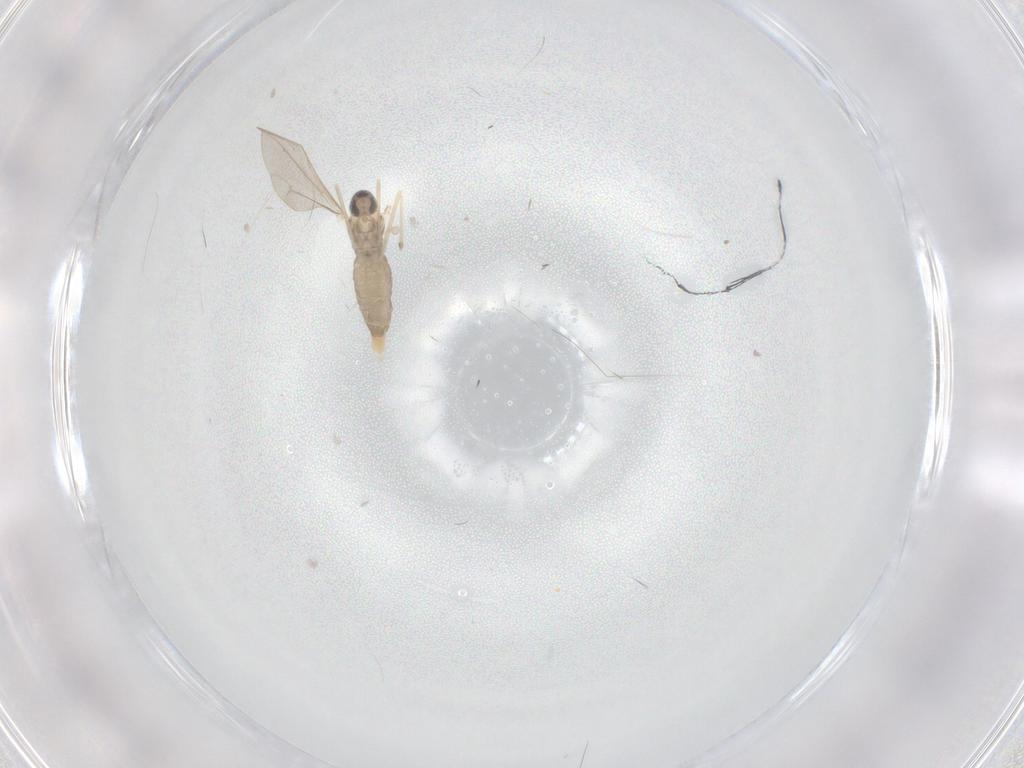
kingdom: Animalia
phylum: Arthropoda
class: Insecta
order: Diptera
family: Cecidomyiidae
